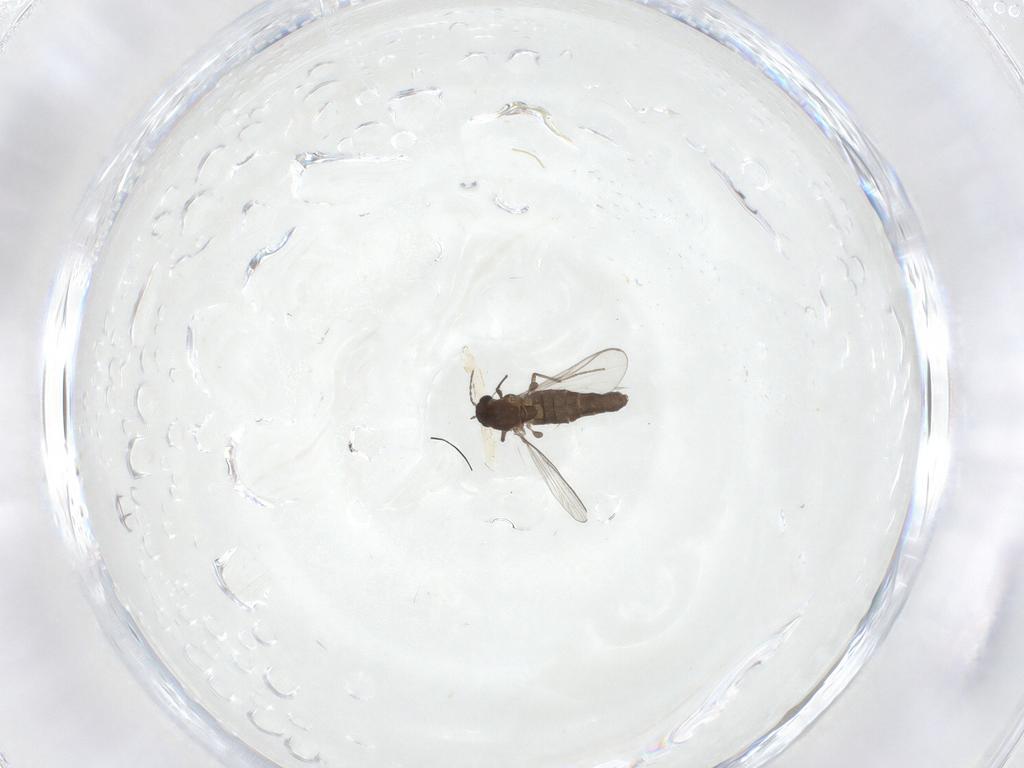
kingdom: Animalia
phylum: Arthropoda
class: Insecta
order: Diptera
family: Chironomidae
